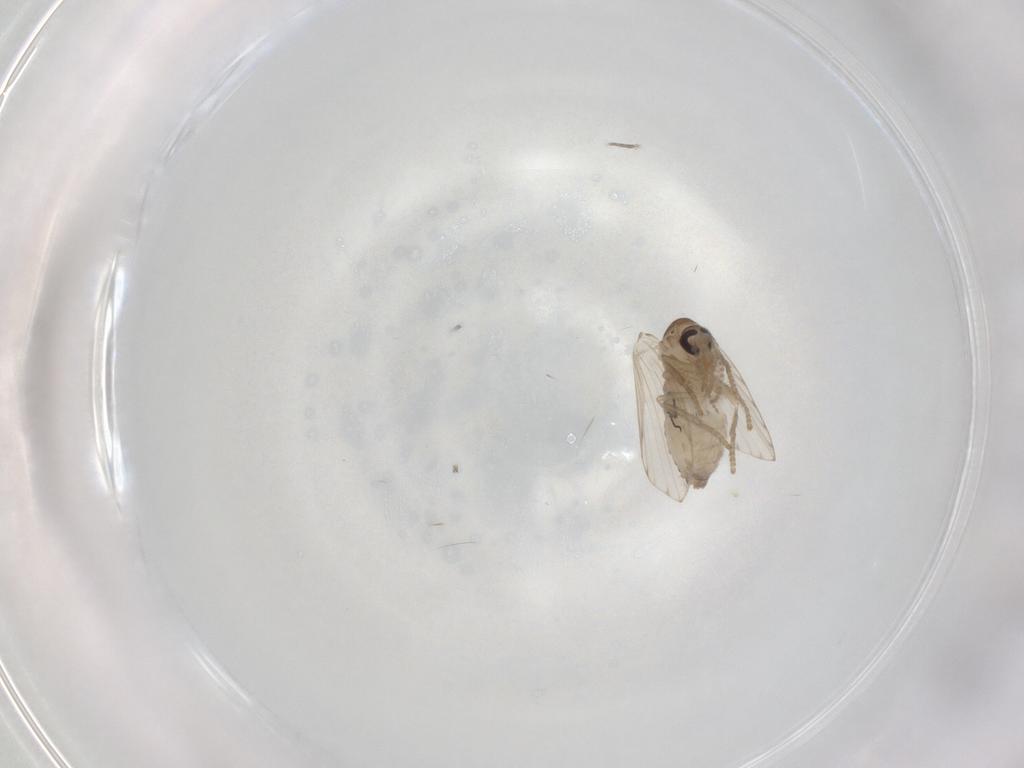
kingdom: Animalia
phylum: Arthropoda
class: Insecta
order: Diptera
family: Psychodidae
